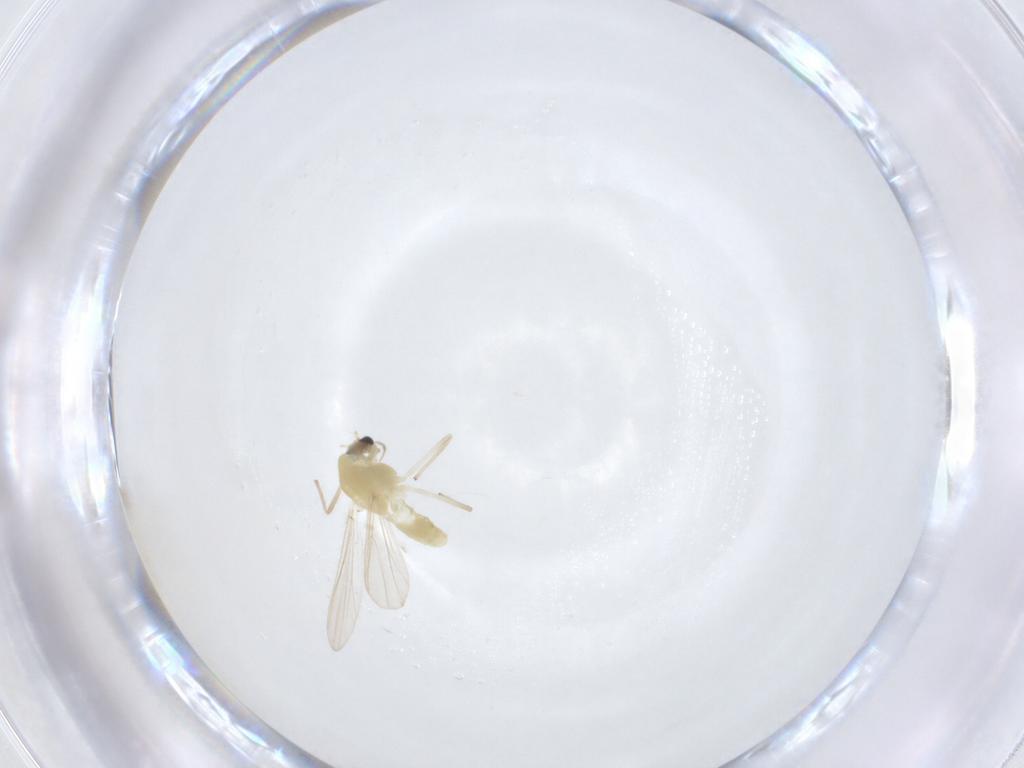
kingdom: Animalia
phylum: Arthropoda
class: Insecta
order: Diptera
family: Chironomidae
